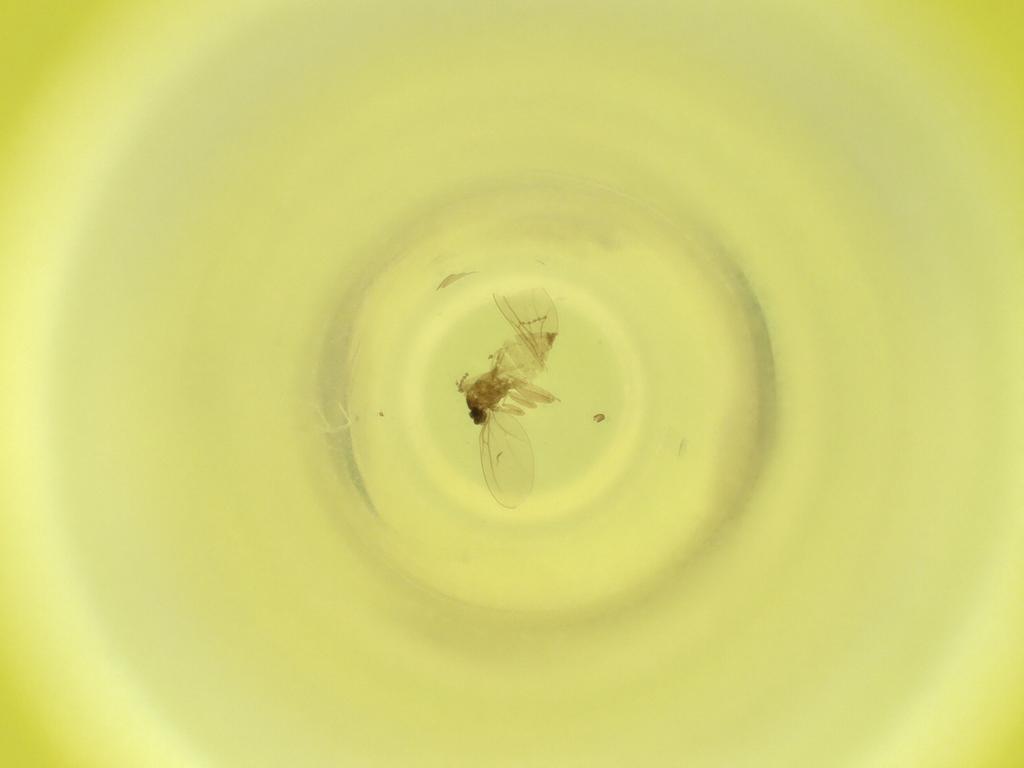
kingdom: Animalia
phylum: Arthropoda
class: Insecta
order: Diptera
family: Cecidomyiidae
